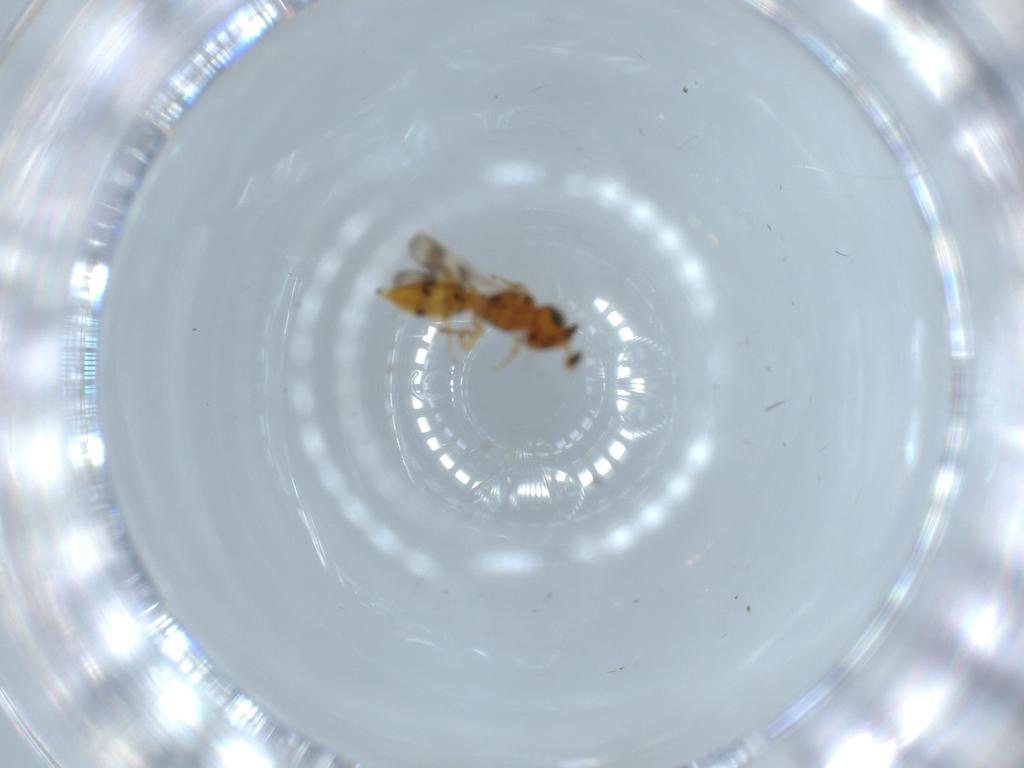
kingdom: Animalia
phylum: Arthropoda
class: Insecta
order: Hymenoptera
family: Scelionidae
